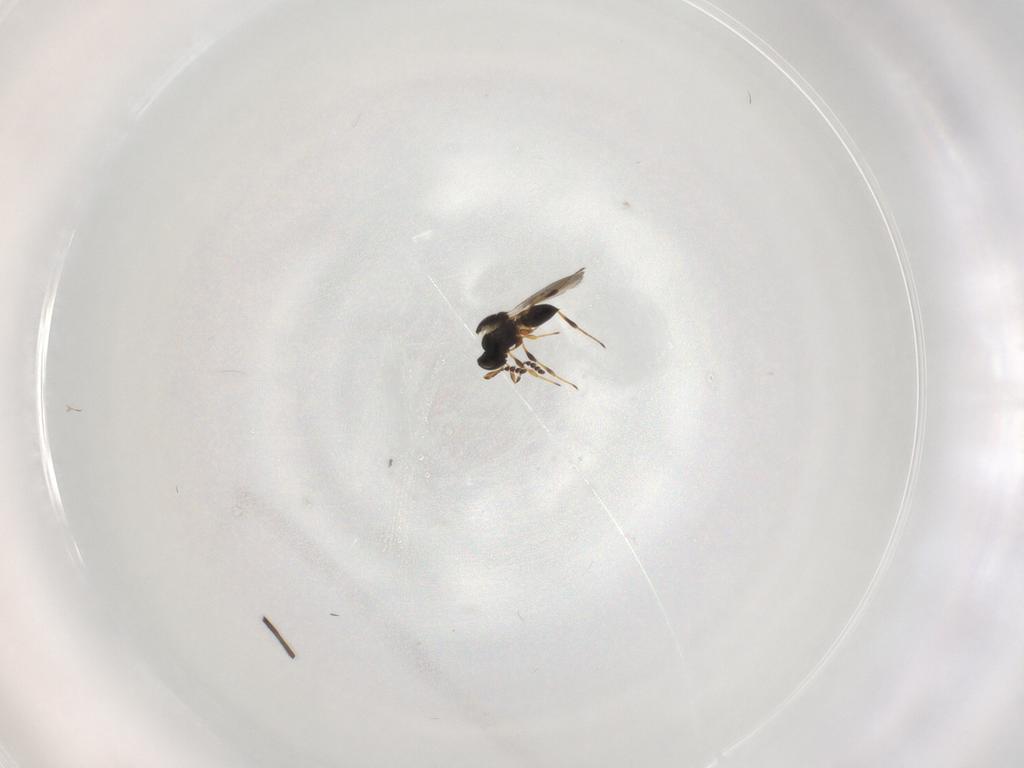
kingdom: Animalia
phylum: Arthropoda
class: Insecta
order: Hymenoptera
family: Platygastridae
